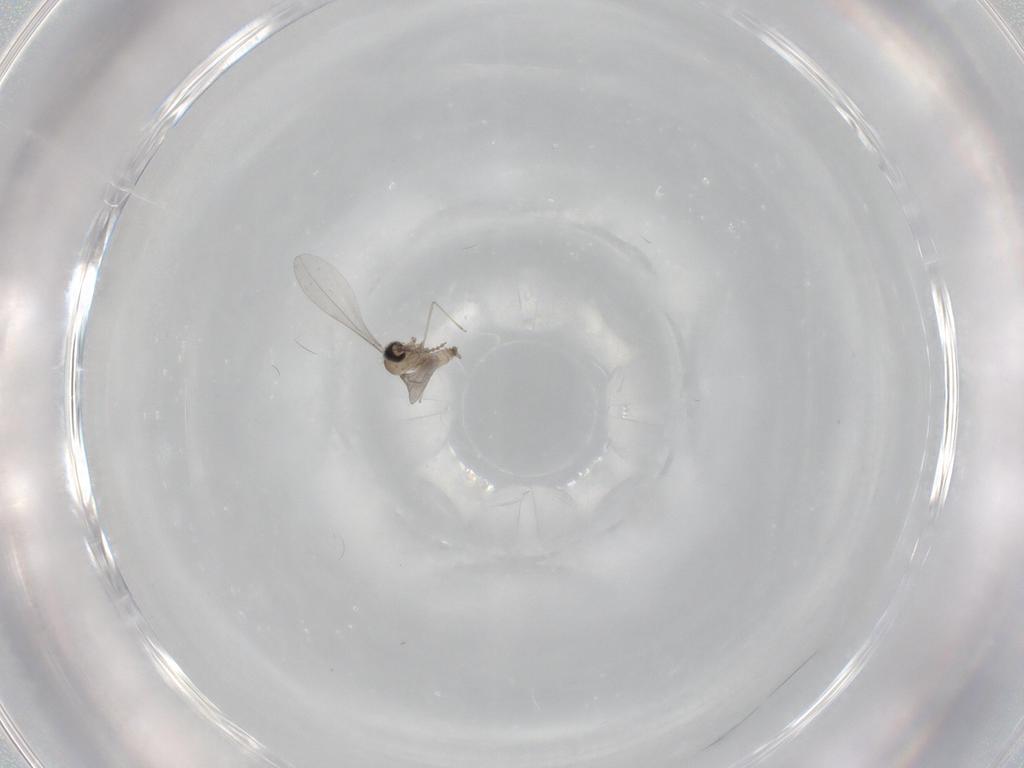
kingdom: Animalia
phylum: Arthropoda
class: Insecta
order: Diptera
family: Cecidomyiidae
